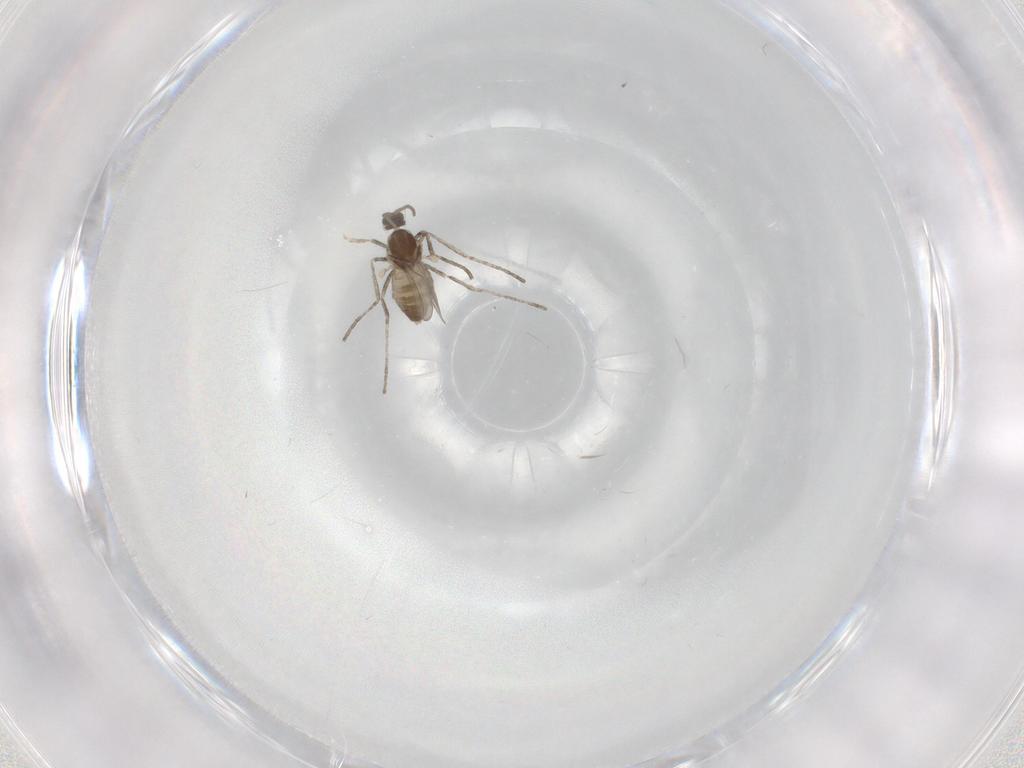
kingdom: Animalia
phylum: Arthropoda
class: Insecta
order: Diptera
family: Cecidomyiidae
